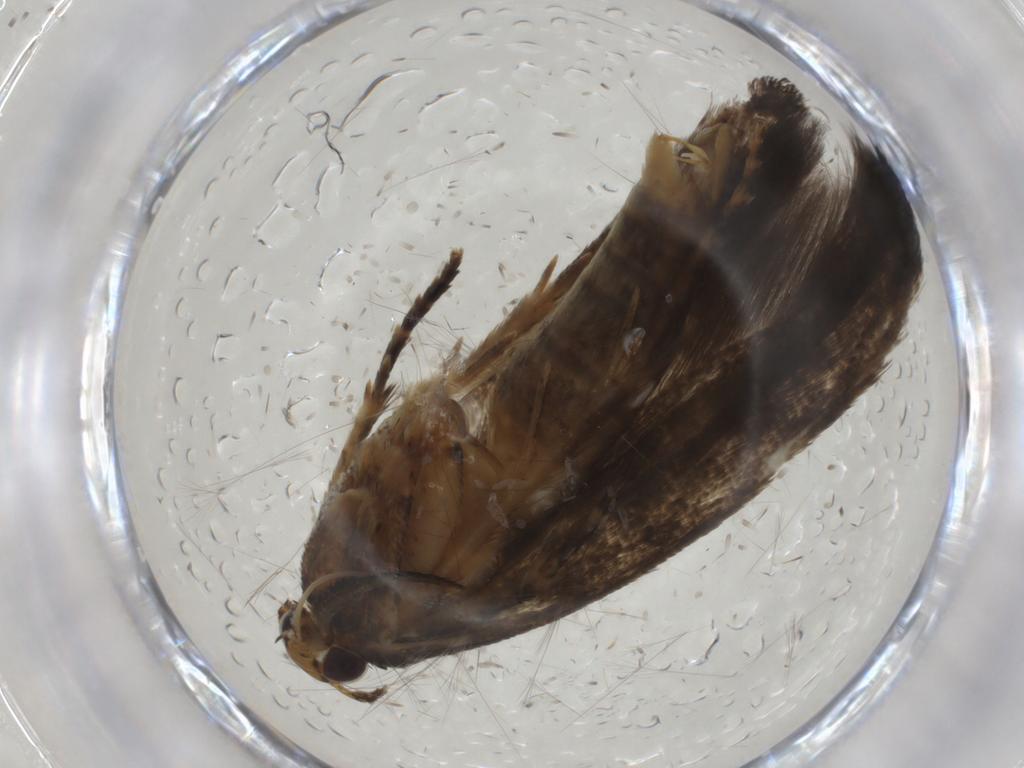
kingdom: Animalia
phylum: Arthropoda
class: Insecta
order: Lepidoptera
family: Gelechiidae
